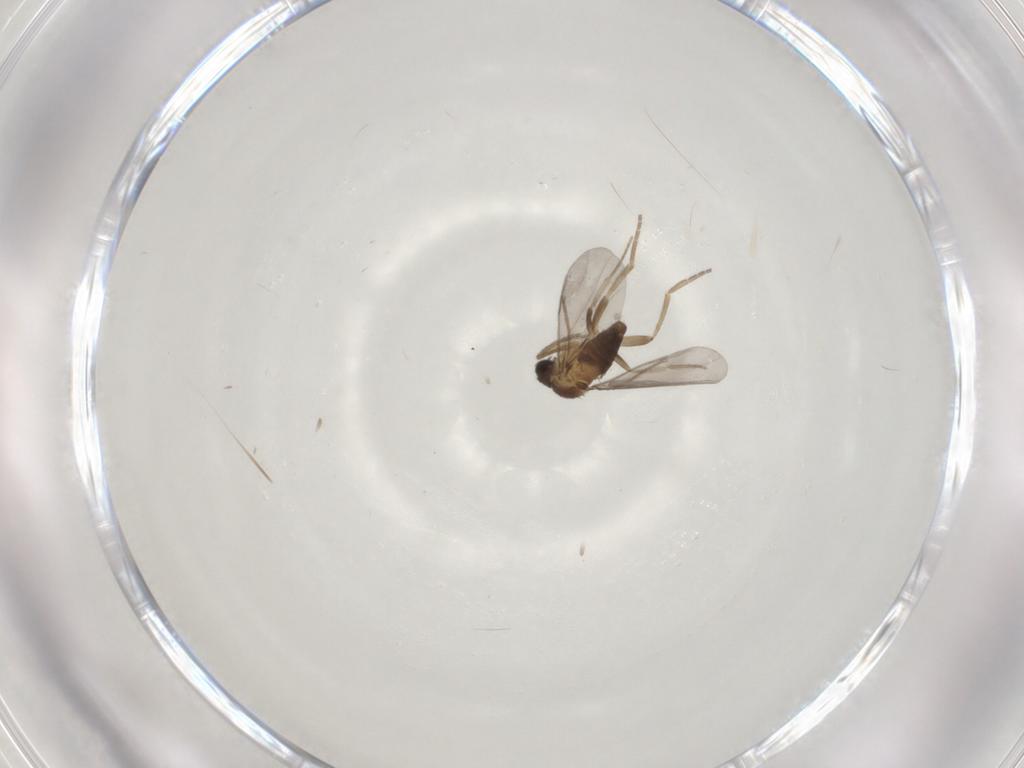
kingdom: Animalia
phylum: Arthropoda
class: Insecta
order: Diptera
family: Phoridae
